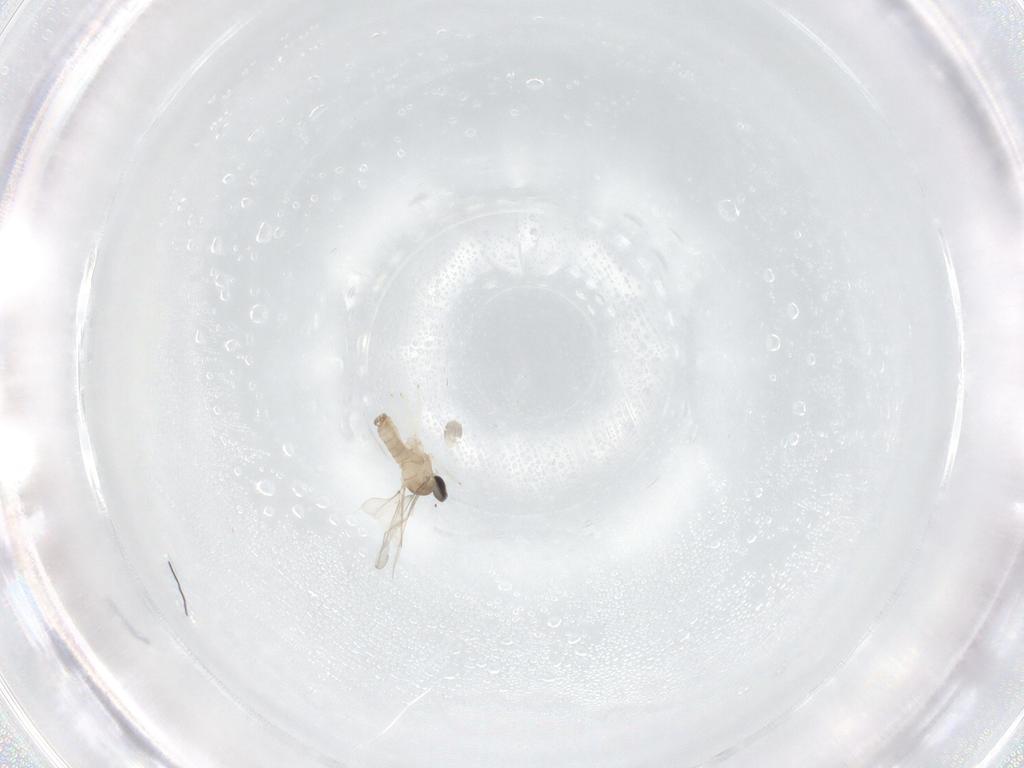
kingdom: Animalia
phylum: Arthropoda
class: Insecta
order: Diptera
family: Cecidomyiidae
